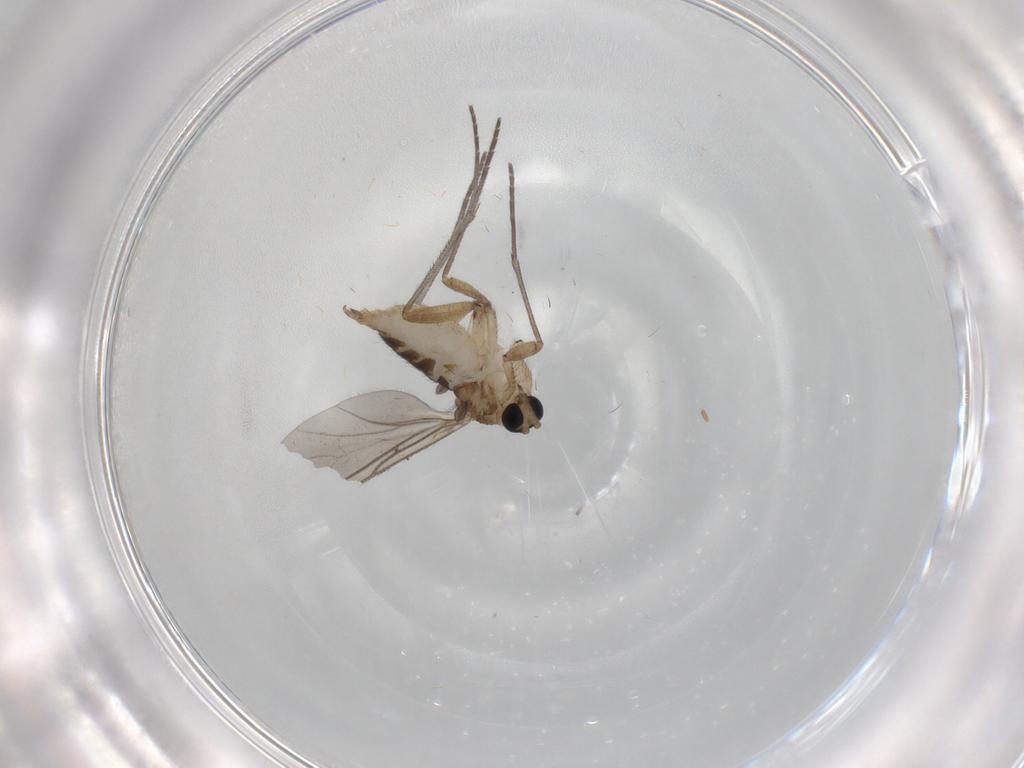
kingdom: Animalia
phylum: Arthropoda
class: Insecta
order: Diptera
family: Sciaridae
